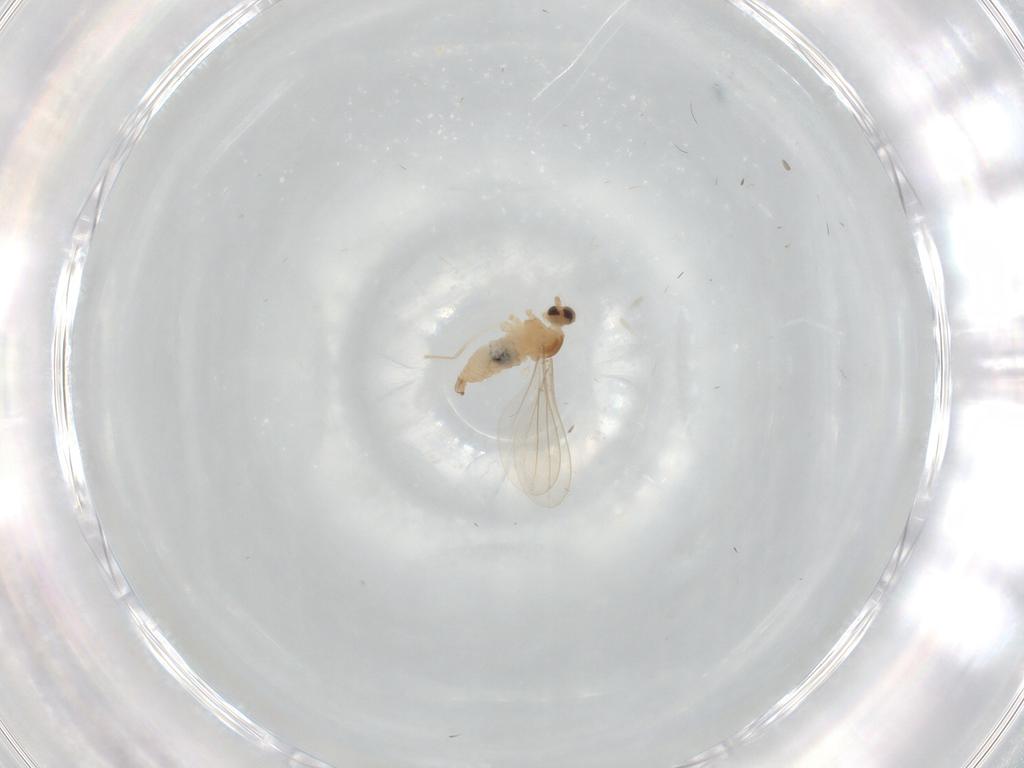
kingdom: Animalia
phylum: Arthropoda
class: Insecta
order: Diptera
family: Cecidomyiidae
